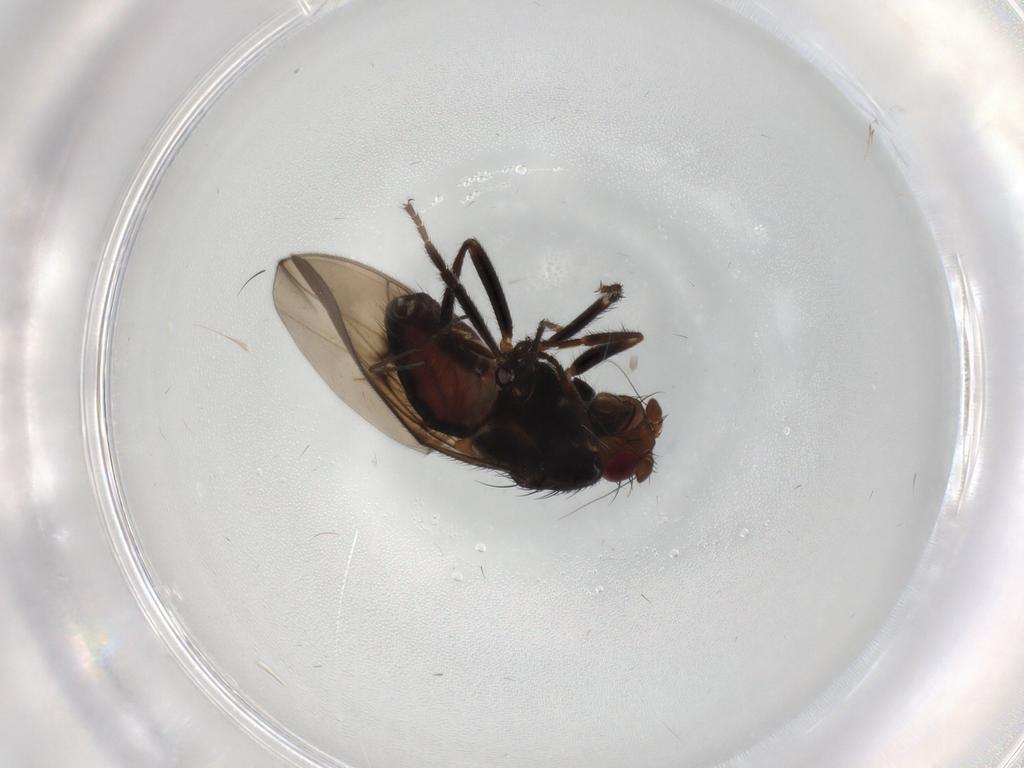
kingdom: Animalia
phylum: Arthropoda
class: Insecta
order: Diptera
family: Sphaeroceridae
